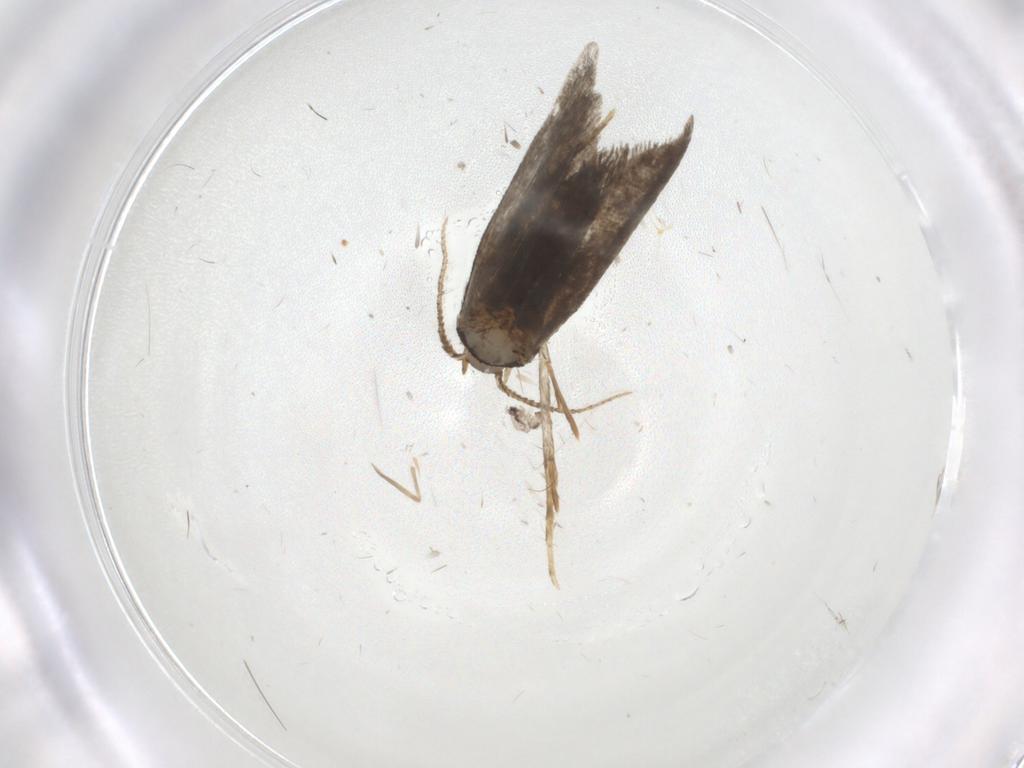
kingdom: Animalia
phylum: Arthropoda
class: Insecta
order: Lepidoptera
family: Psychidae
